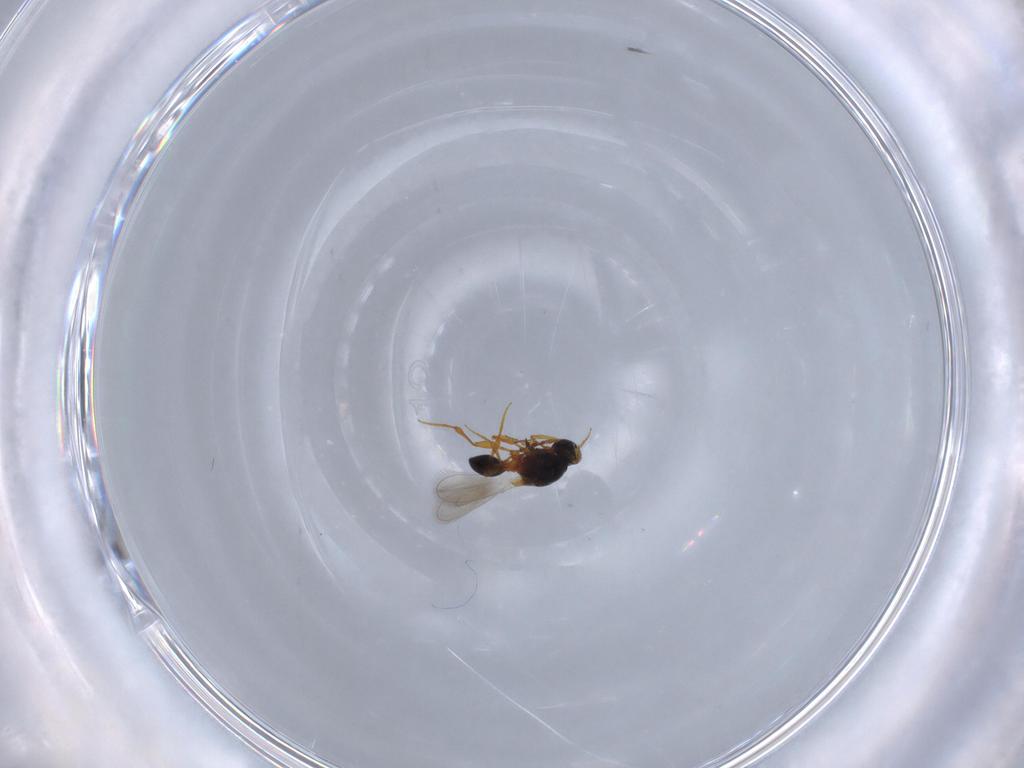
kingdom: Animalia
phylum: Arthropoda
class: Insecta
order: Hymenoptera
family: Platygastridae
